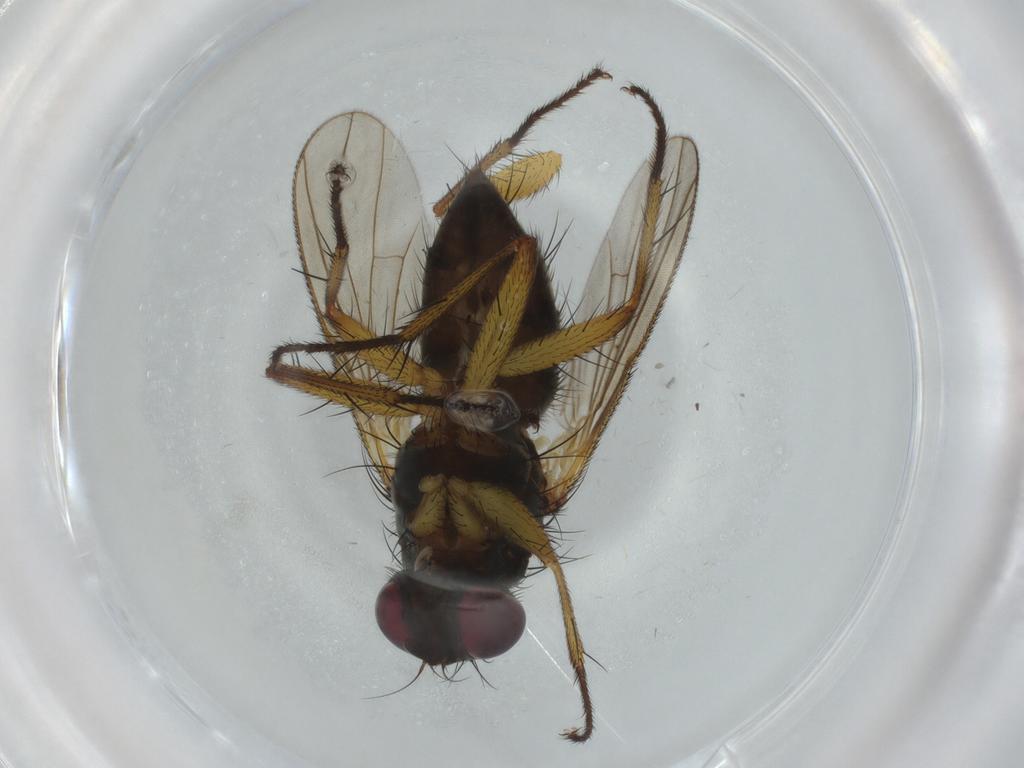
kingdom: Animalia
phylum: Arthropoda
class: Insecta
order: Diptera
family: Muscidae
